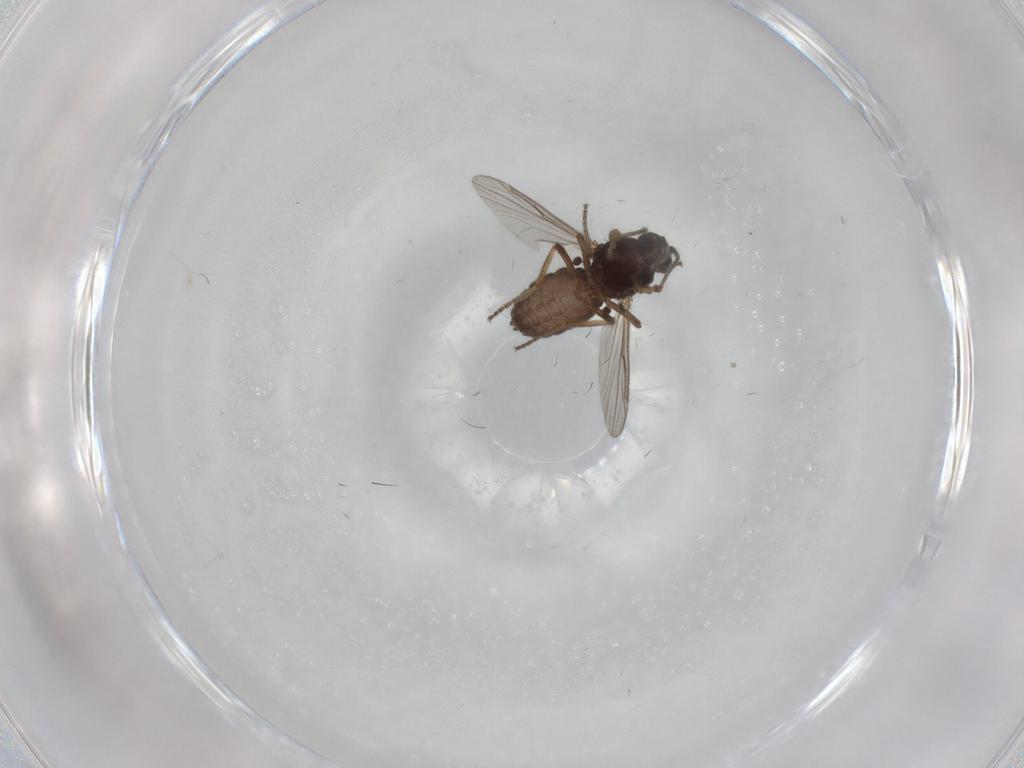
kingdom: Animalia
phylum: Arthropoda
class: Insecta
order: Diptera
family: Ceratopogonidae
